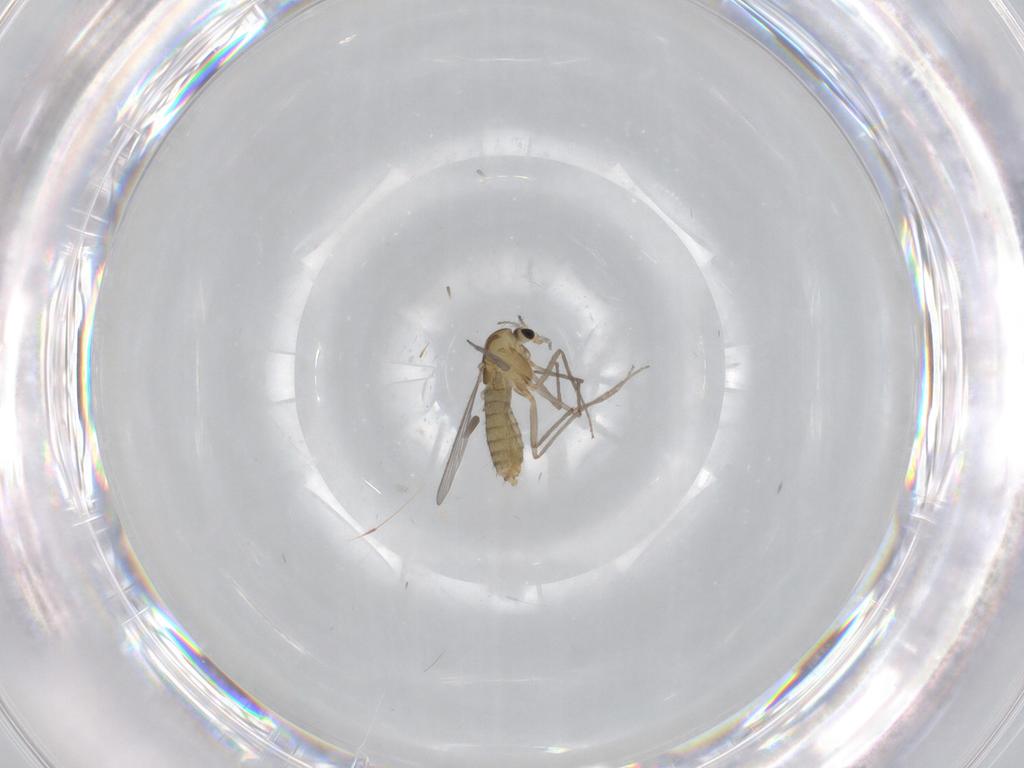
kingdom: Animalia
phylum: Arthropoda
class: Insecta
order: Diptera
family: Chironomidae
